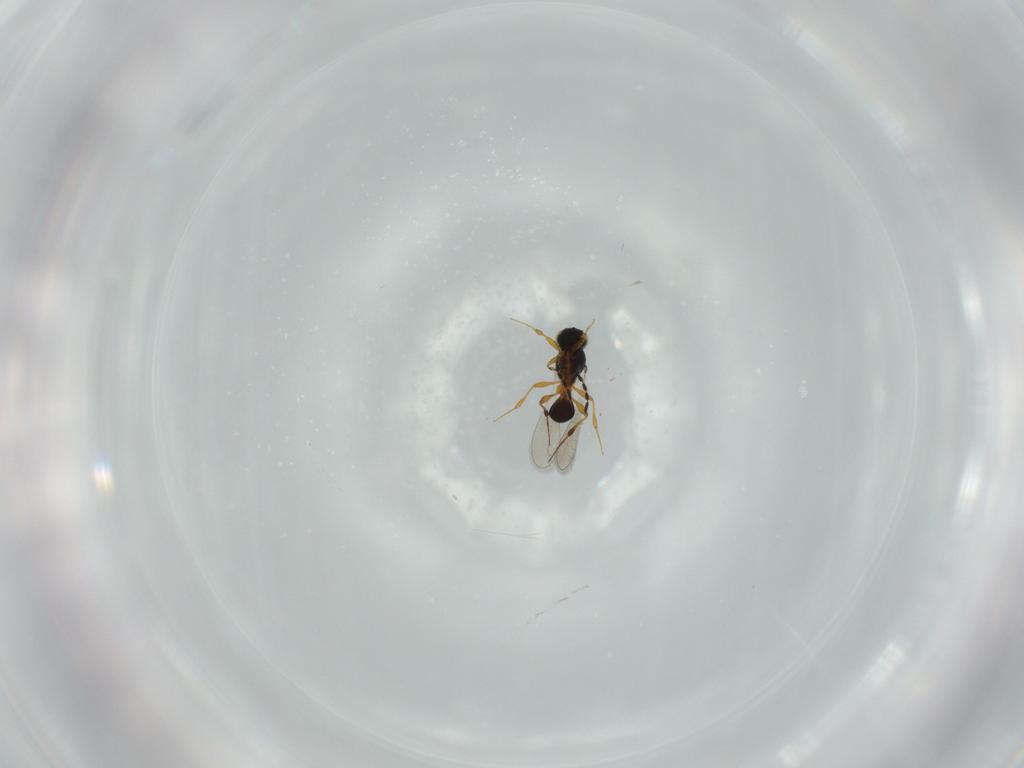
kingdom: Animalia
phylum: Arthropoda
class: Insecta
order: Hymenoptera
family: Platygastridae
